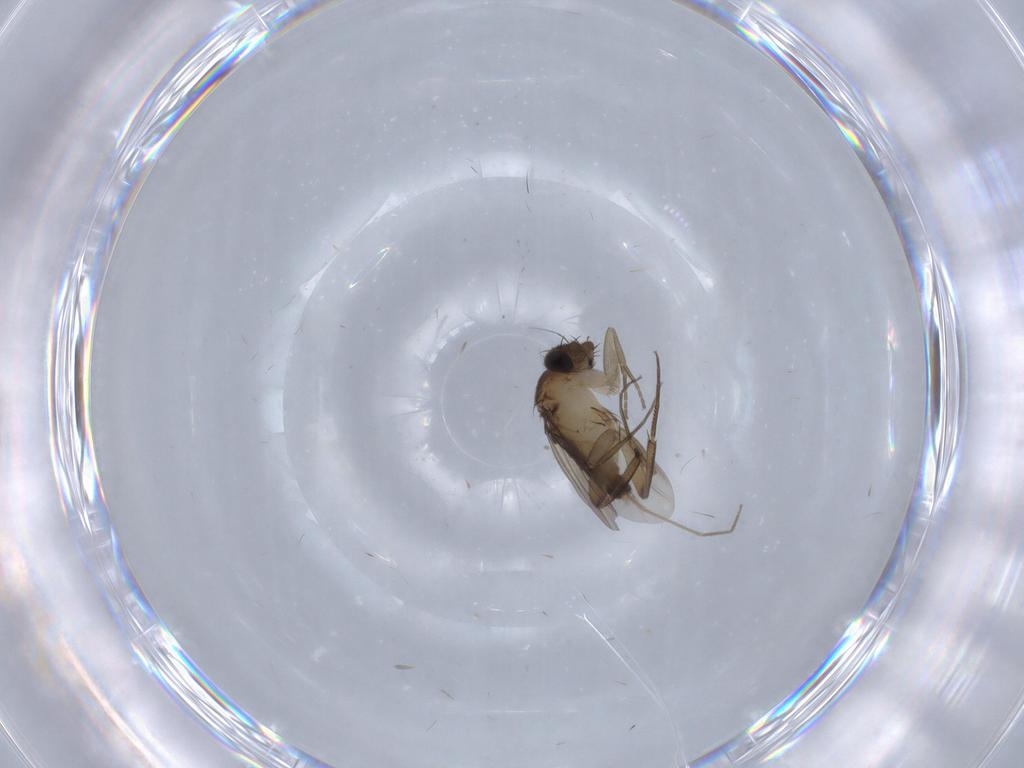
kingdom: Animalia
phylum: Arthropoda
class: Insecta
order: Diptera
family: Phoridae
